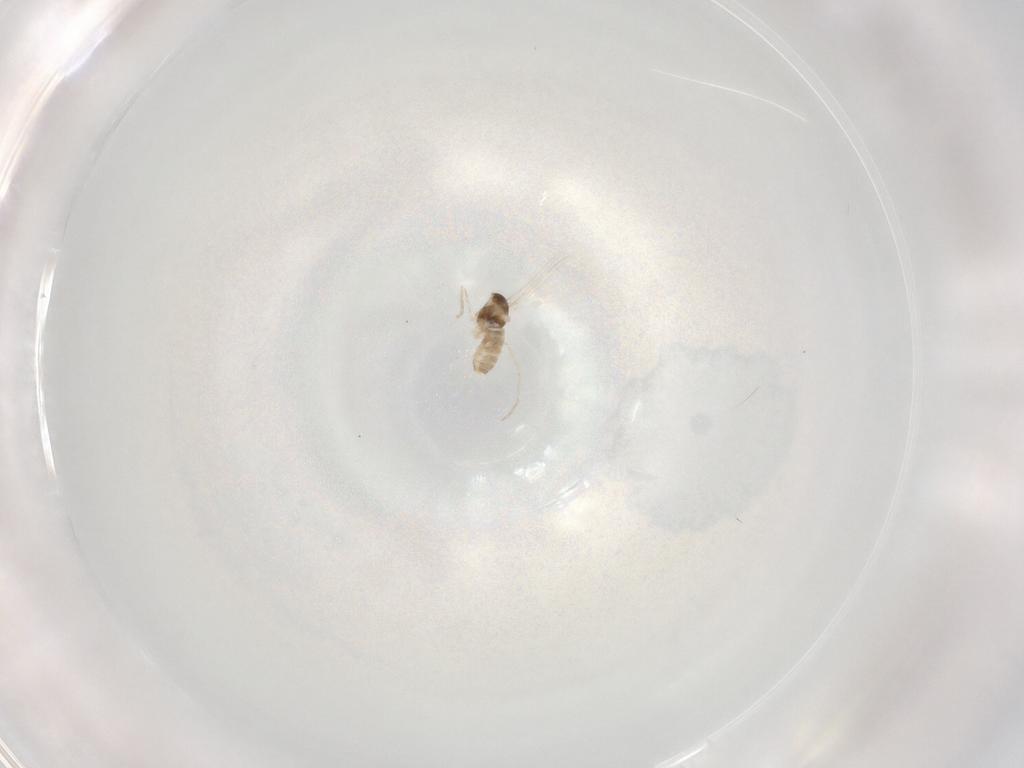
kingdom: Animalia
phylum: Arthropoda
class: Insecta
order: Diptera
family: Cecidomyiidae
